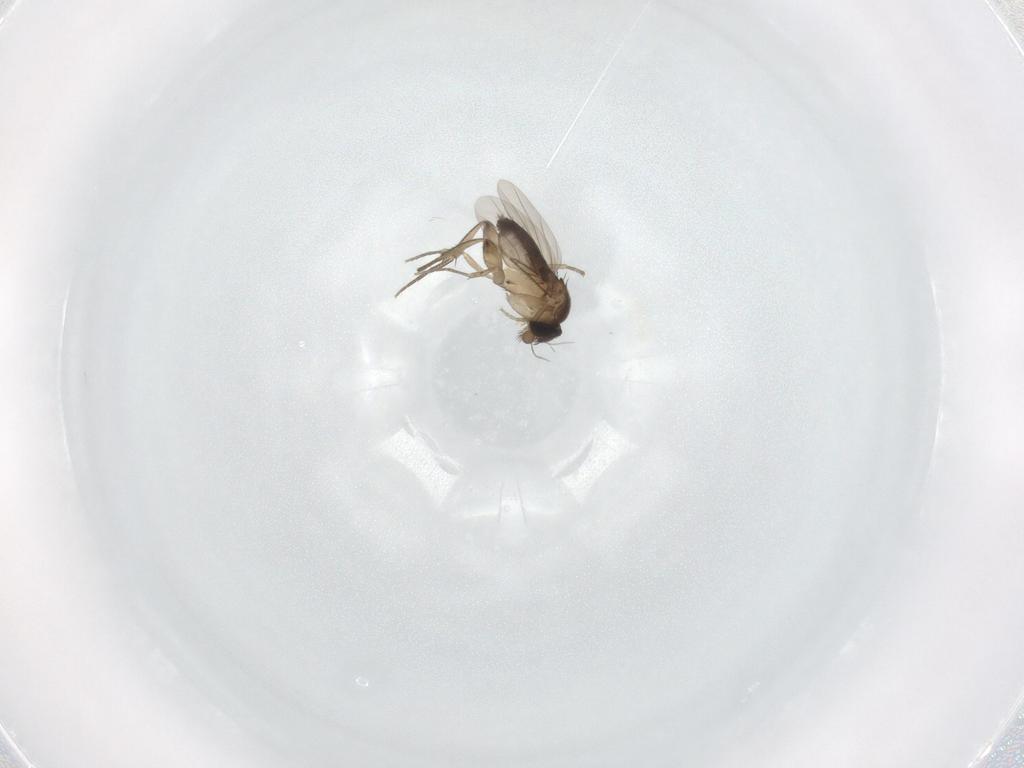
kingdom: Animalia
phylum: Arthropoda
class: Insecta
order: Diptera
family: Phoridae
